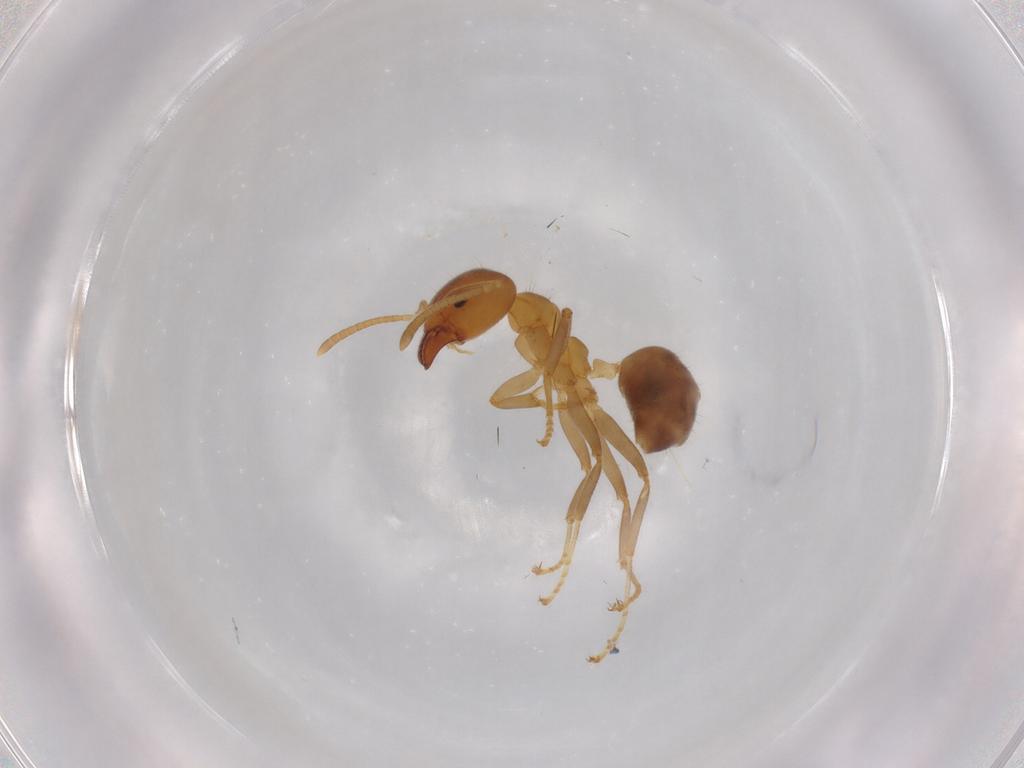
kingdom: Animalia
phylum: Arthropoda
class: Insecta
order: Hymenoptera
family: Formicidae
